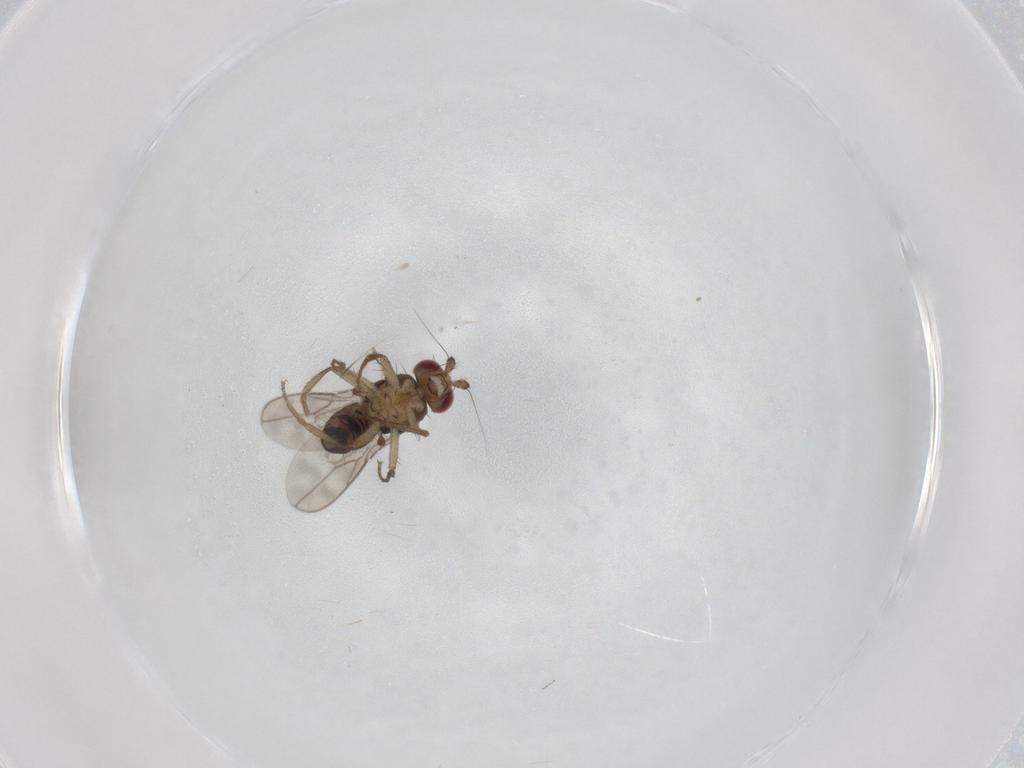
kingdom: Animalia
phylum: Arthropoda
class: Insecta
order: Diptera
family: Sphaeroceridae
